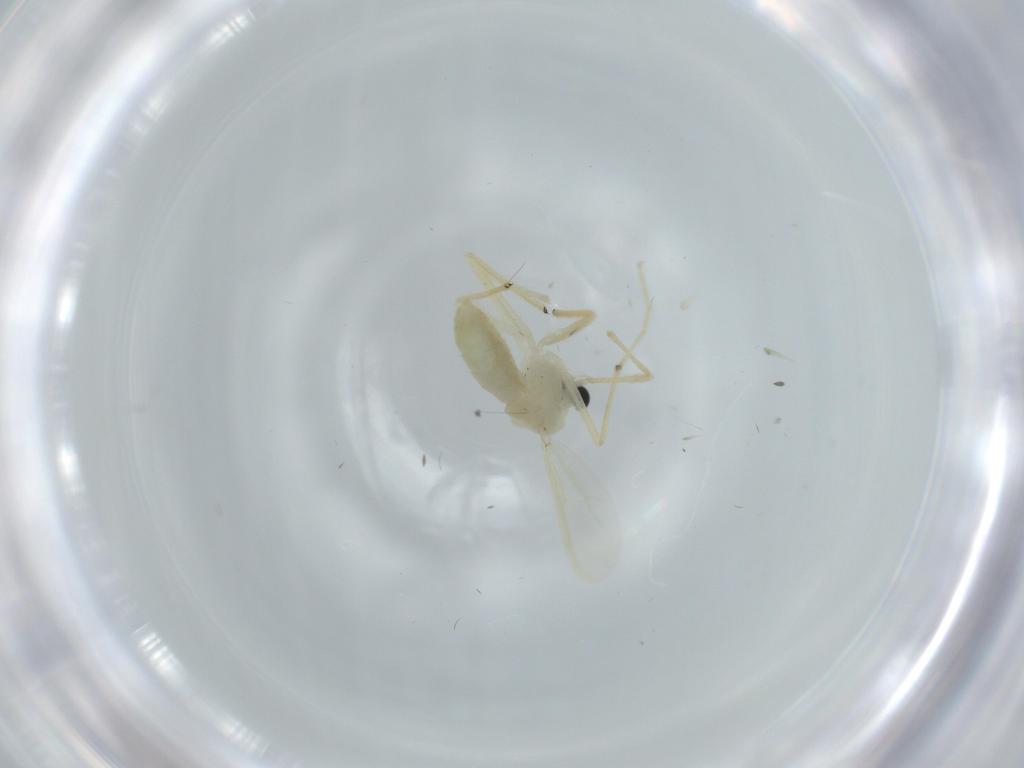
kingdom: Animalia
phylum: Arthropoda
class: Insecta
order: Diptera
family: Chironomidae
